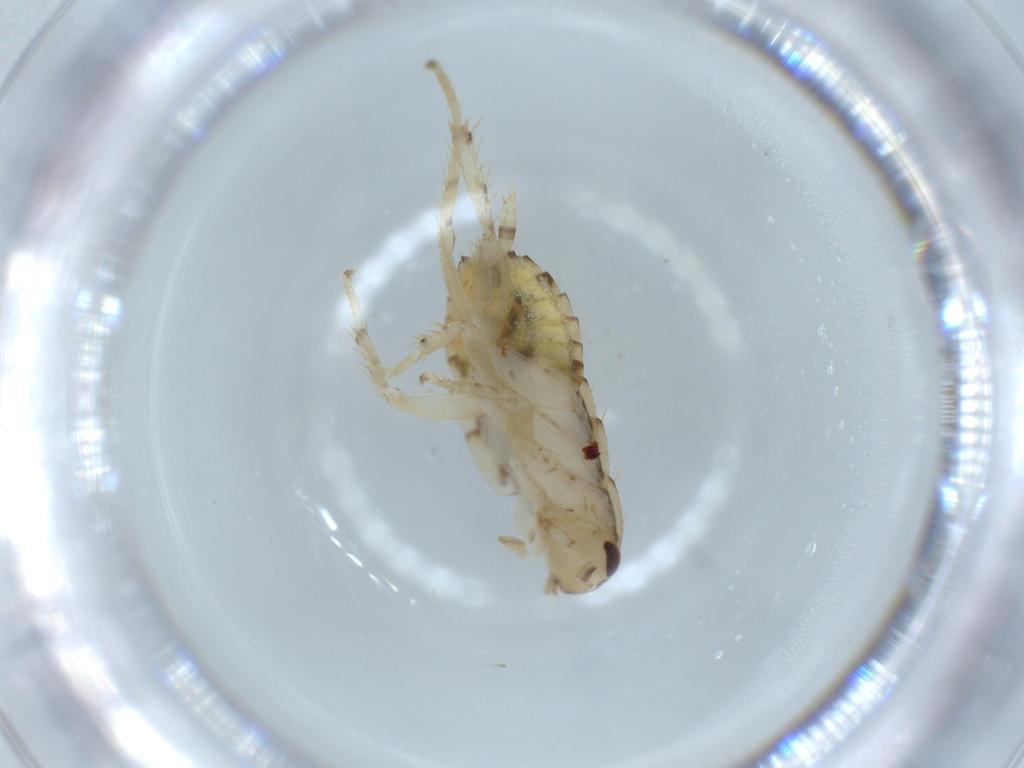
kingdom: Animalia
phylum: Arthropoda
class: Insecta
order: Blattodea
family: Ectobiidae
